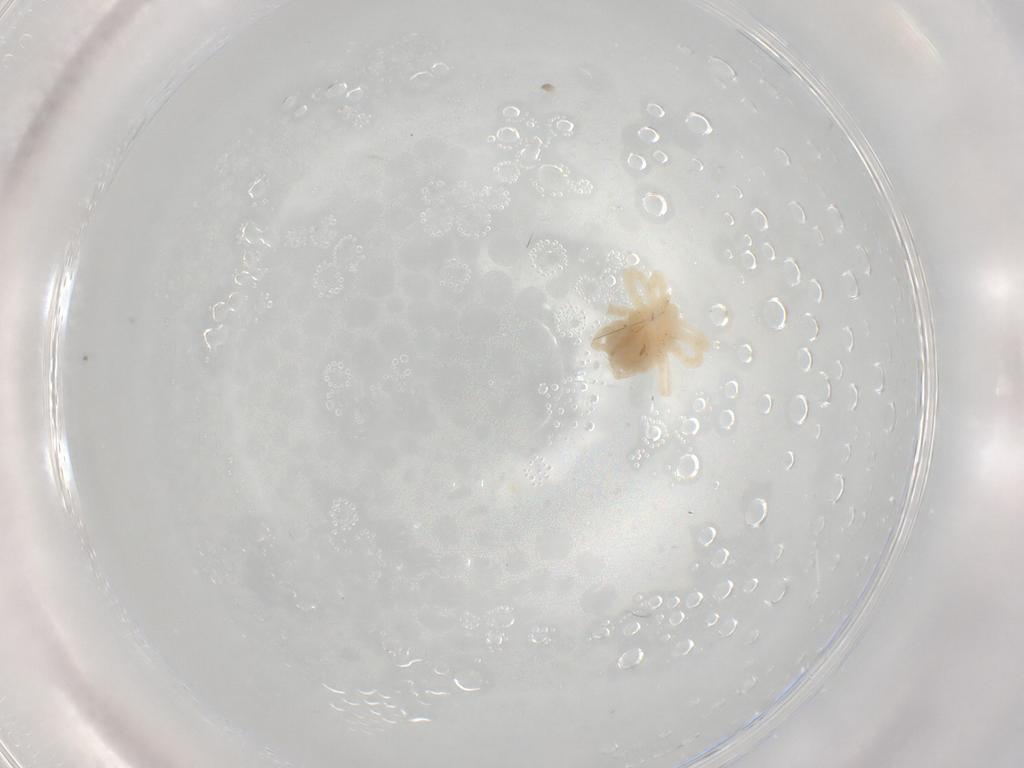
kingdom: Animalia
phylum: Arthropoda
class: Arachnida
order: Trombidiformes
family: Anystidae
